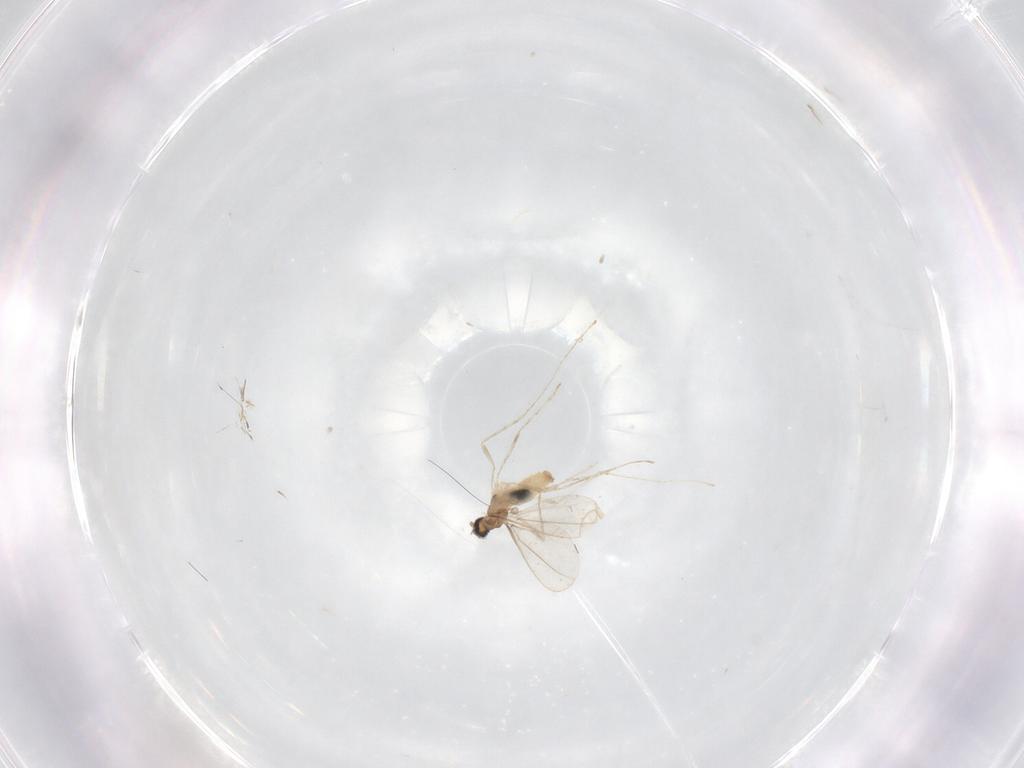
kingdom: Animalia
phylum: Arthropoda
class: Insecta
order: Diptera
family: Cecidomyiidae
